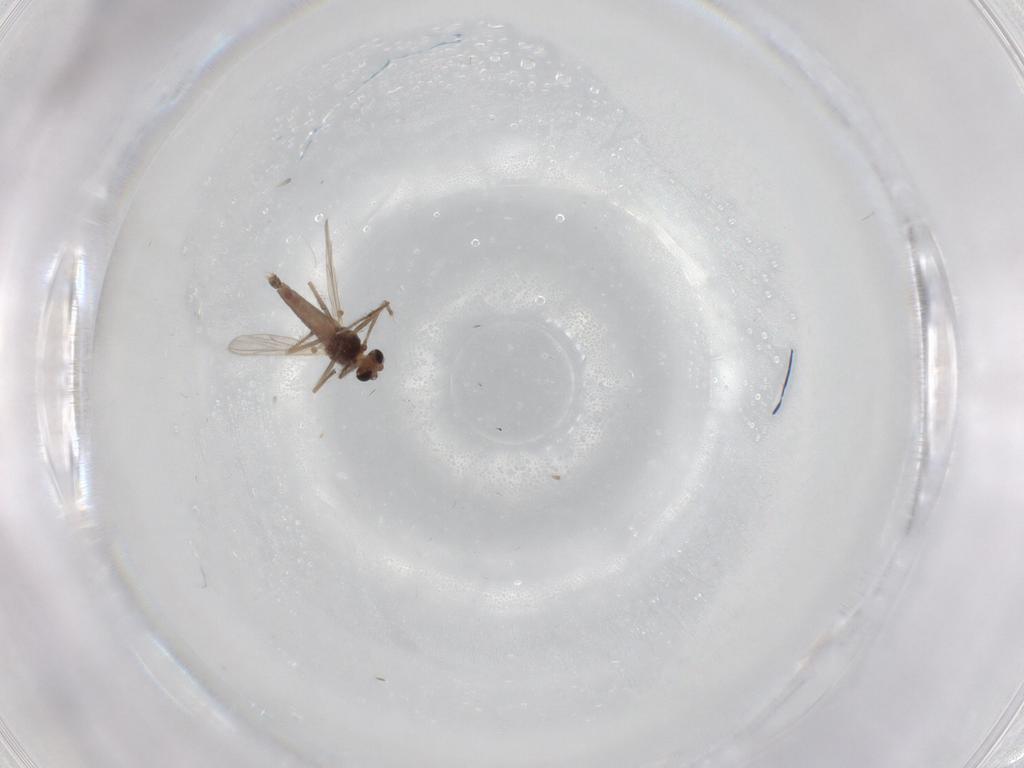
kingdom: Animalia
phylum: Arthropoda
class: Insecta
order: Diptera
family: Chironomidae
